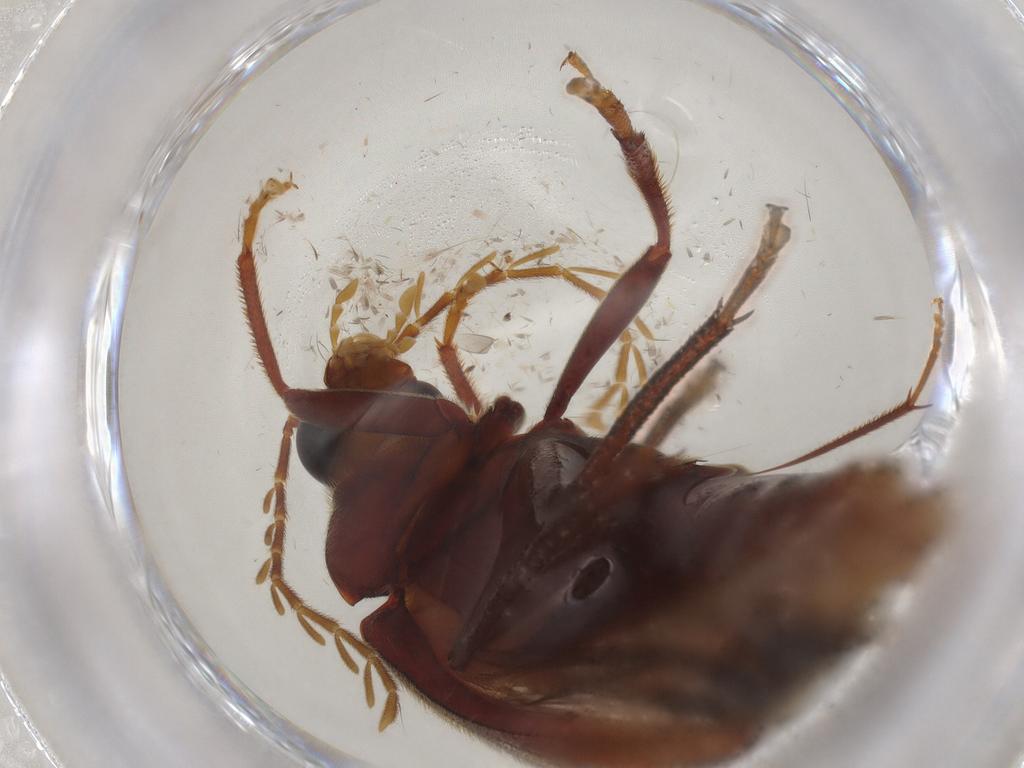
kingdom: Animalia
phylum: Arthropoda
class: Insecta
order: Coleoptera
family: Ptilodactylidae
